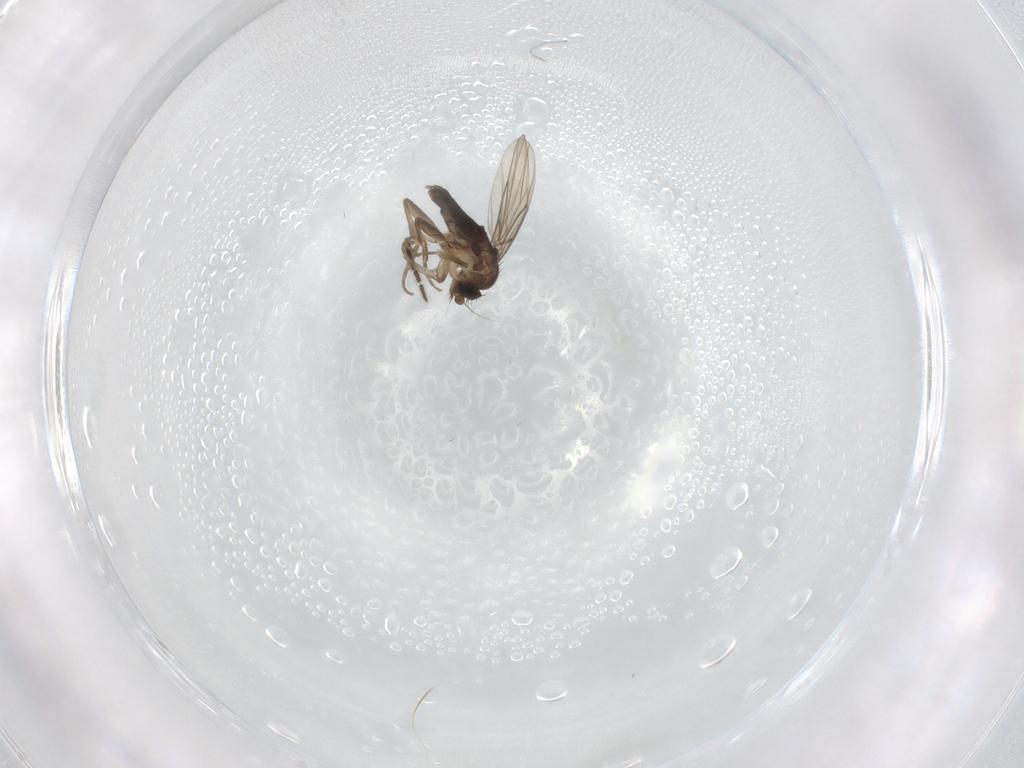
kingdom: Animalia
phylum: Arthropoda
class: Insecta
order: Diptera
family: Sciaridae
